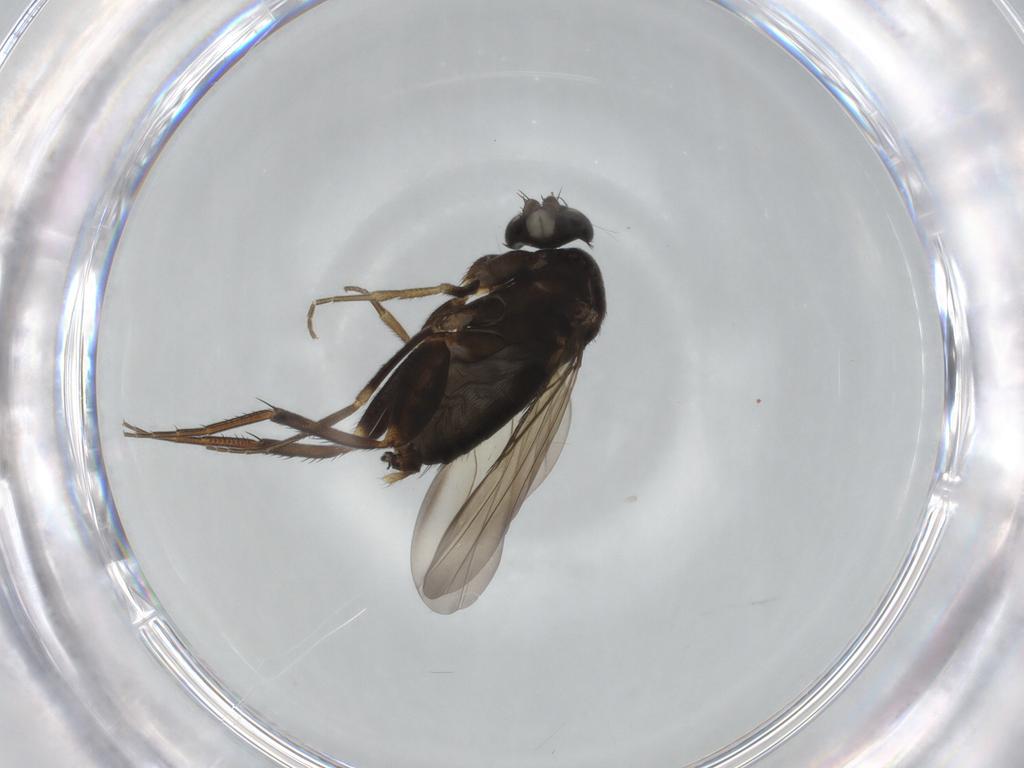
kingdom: Animalia
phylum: Arthropoda
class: Insecta
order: Diptera
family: Phoridae
